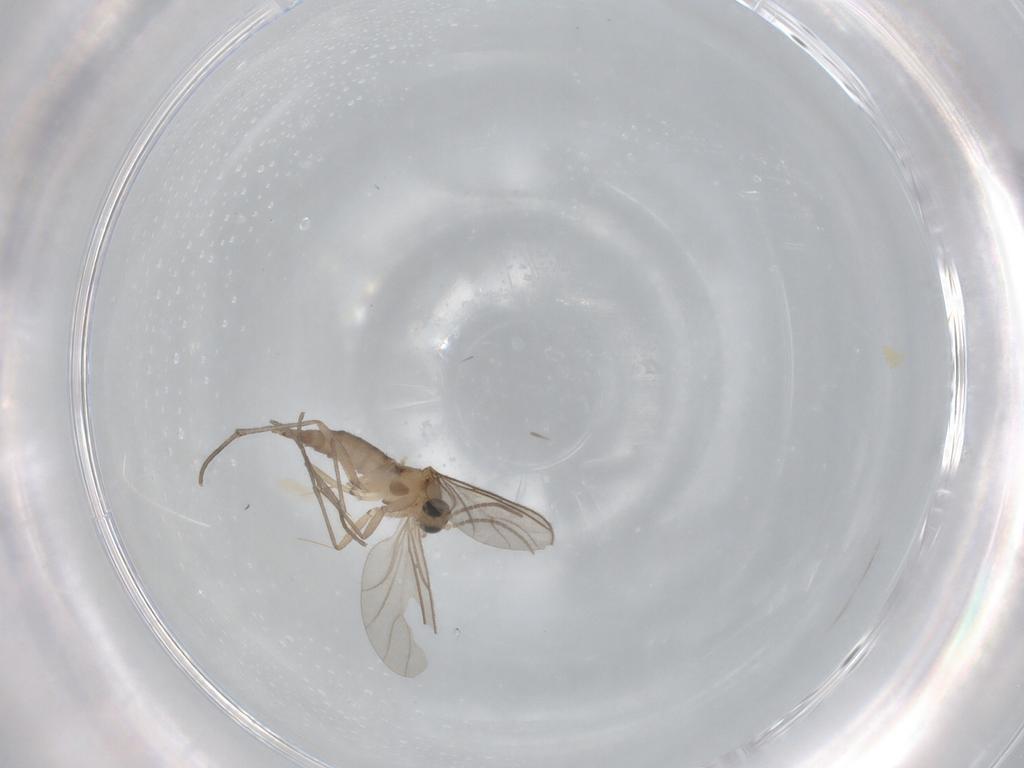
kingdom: Animalia
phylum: Arthropoda
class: Insecta
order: Diptera
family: Sciaridae
